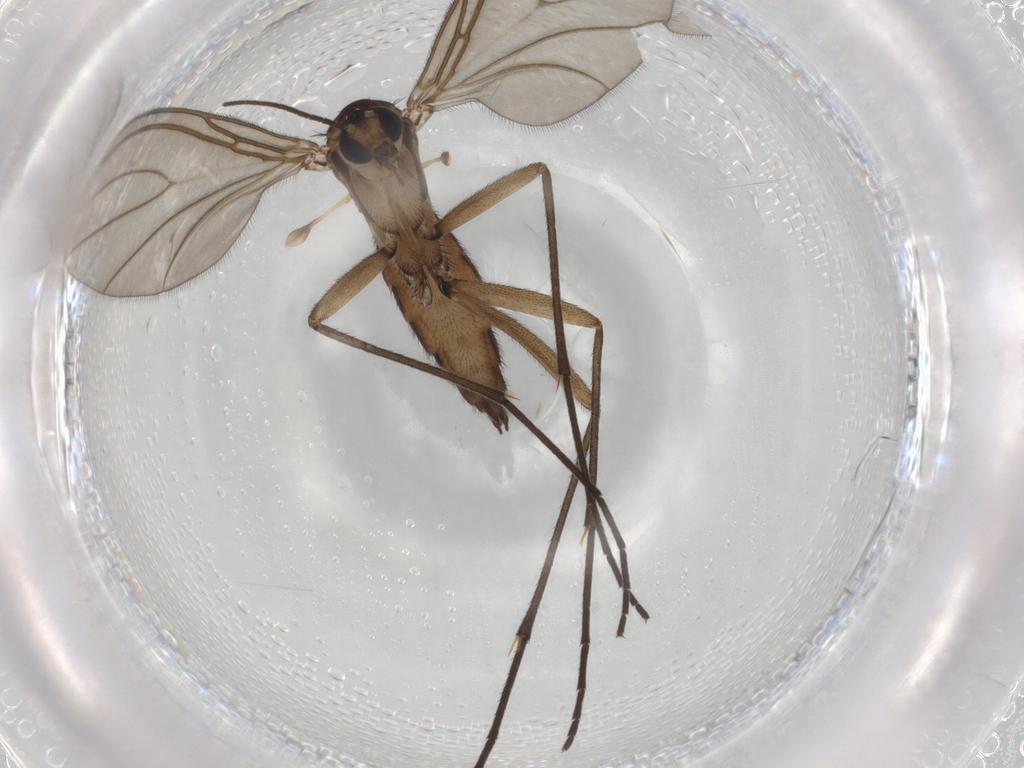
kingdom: Animalia
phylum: Arthropoda
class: Insecta
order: Diptera
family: Sciaridae
